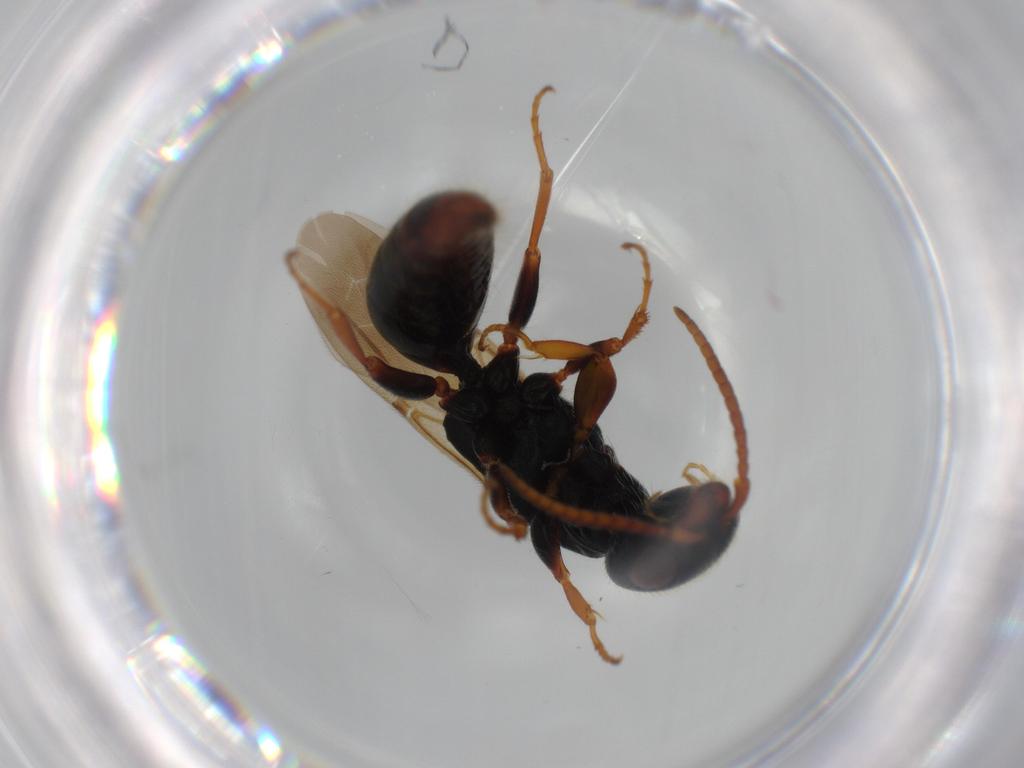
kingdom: Animalia
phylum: Arthropoda
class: Insecta
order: Hymenoptera
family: Bethylidae
